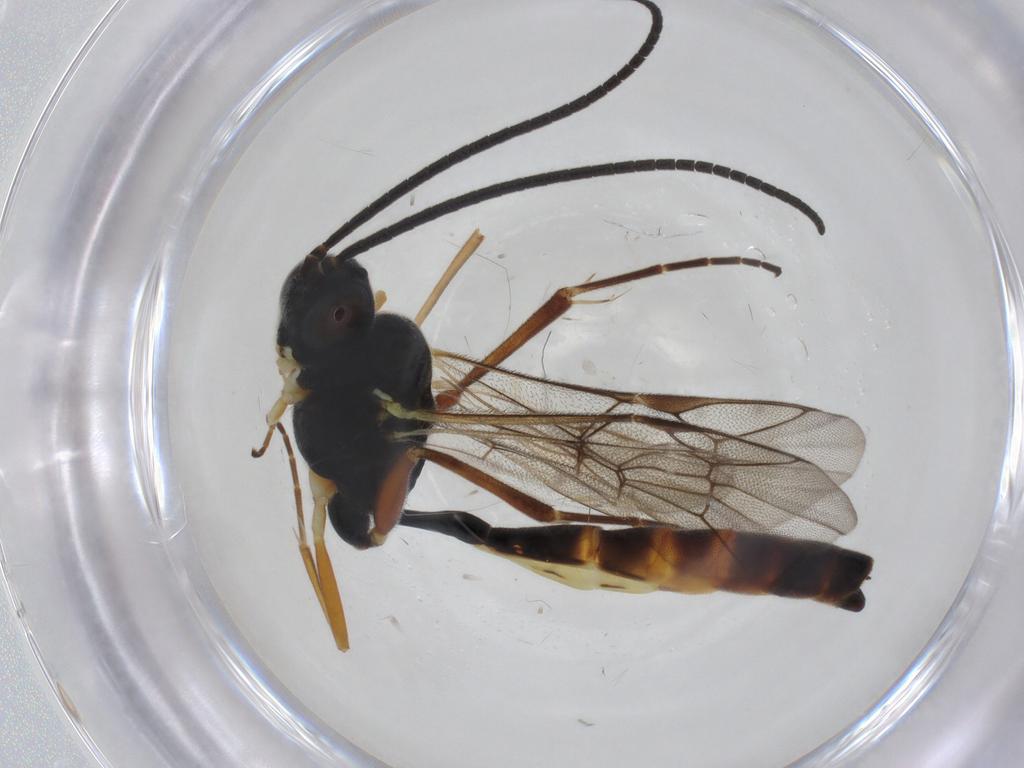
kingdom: Animalia
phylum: Arthropoda
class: Insecta
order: Hymenoptera
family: Ichneumonidae
